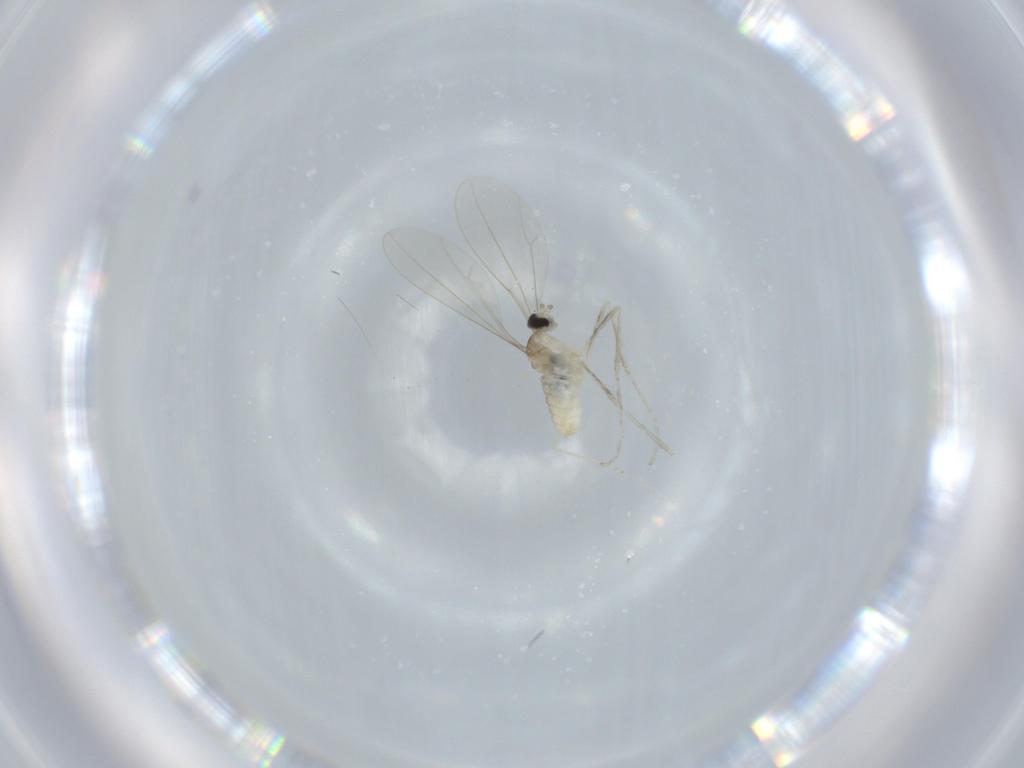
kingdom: Animalia
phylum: Arthropoda
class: Insecta
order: Diptera
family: Cecidomyiidae
